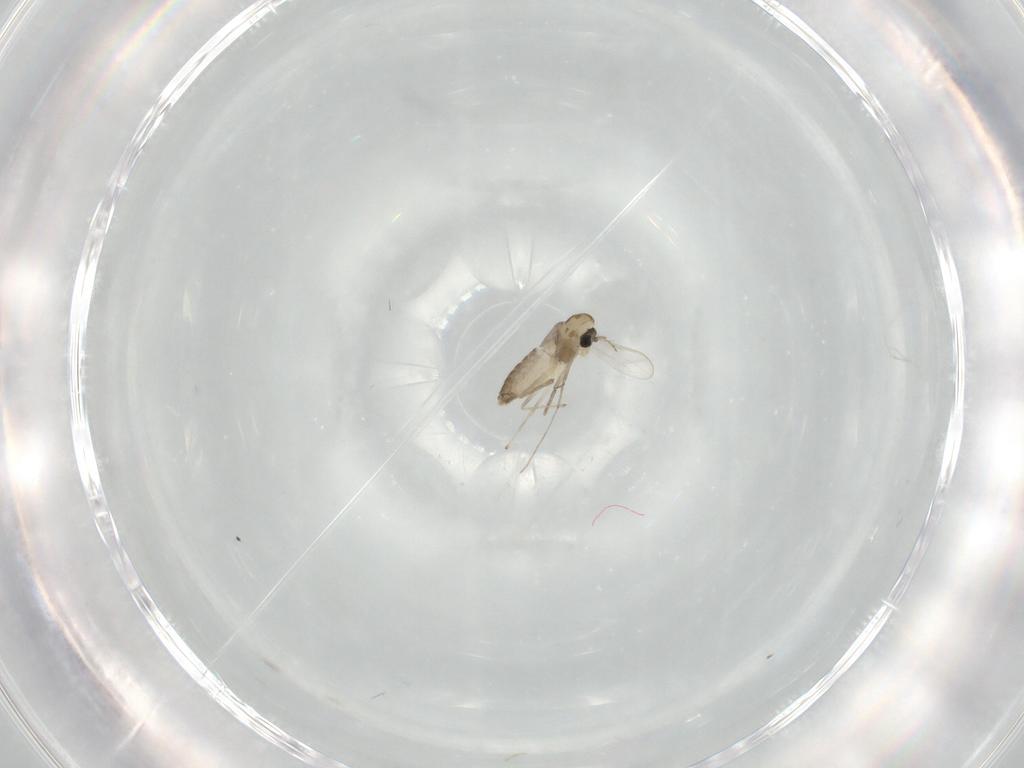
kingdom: Animalia
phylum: Arthropoda
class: Insecta
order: Diptera
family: Chironomidae
